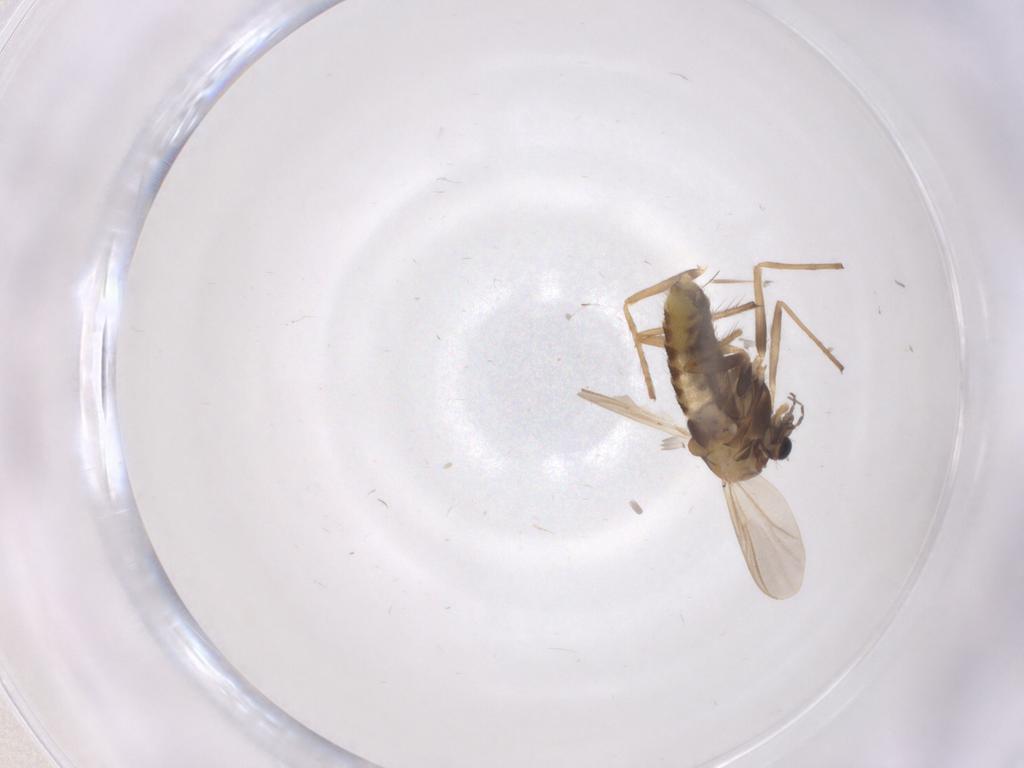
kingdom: Animalia
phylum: Arthropoda
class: Insecta
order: Diptera
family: Chironomidae
